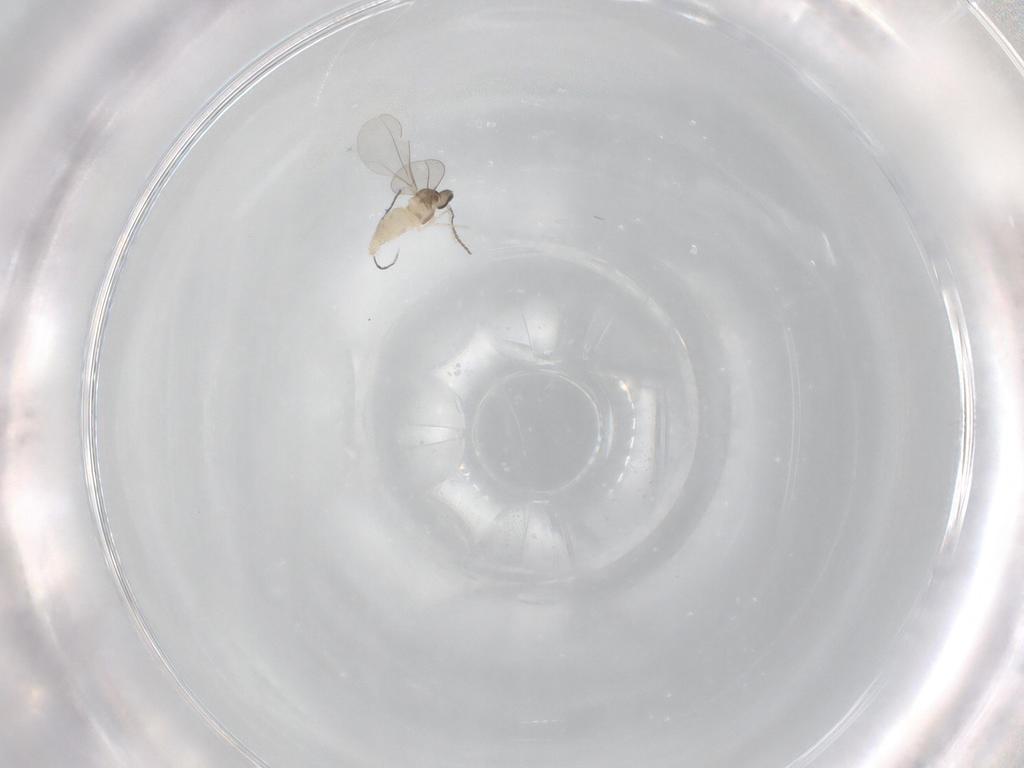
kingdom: Animalia
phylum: Arthropoda
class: Insecta
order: Diptera
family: Cecidomyiidae
